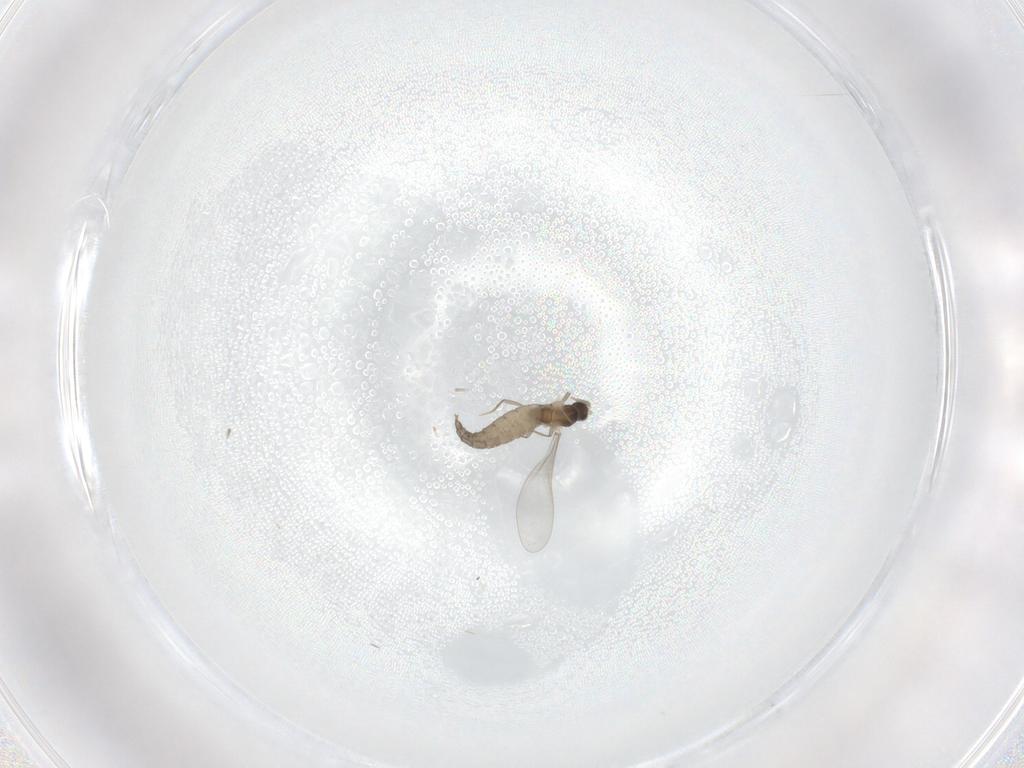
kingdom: Animalia
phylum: Arthropoda
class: Insecta
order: Diptera
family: Cecidomyiidae
